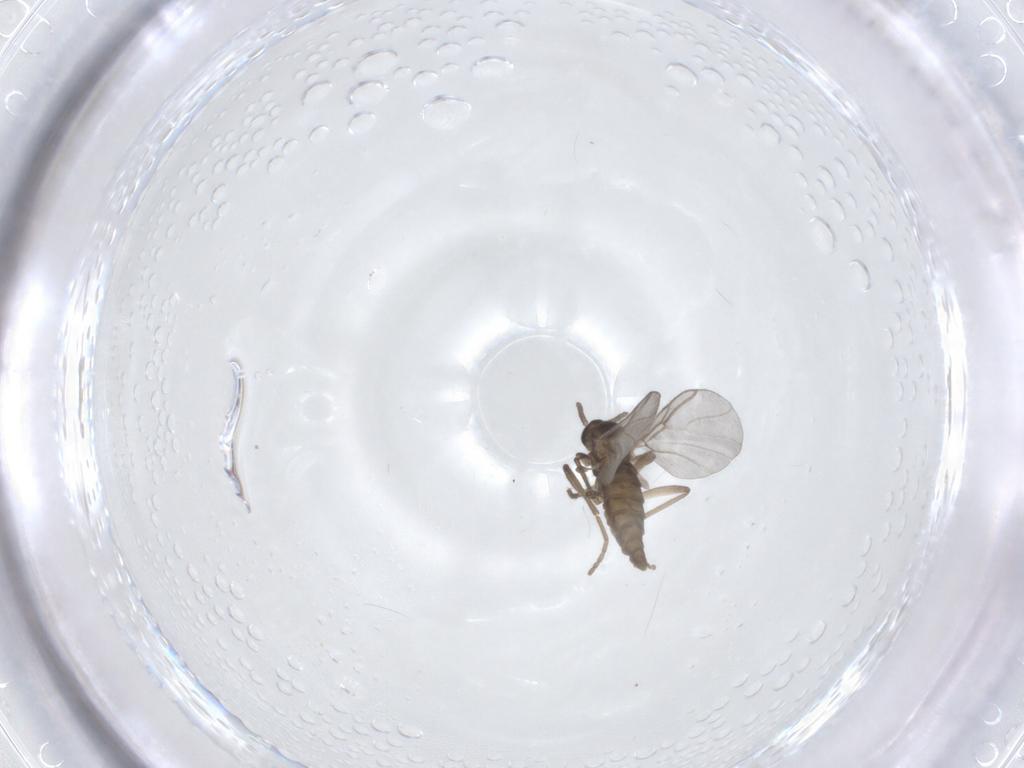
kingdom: Animalia
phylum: Arthropoda
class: Insecta
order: Diptera
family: Cecidomyiidae
